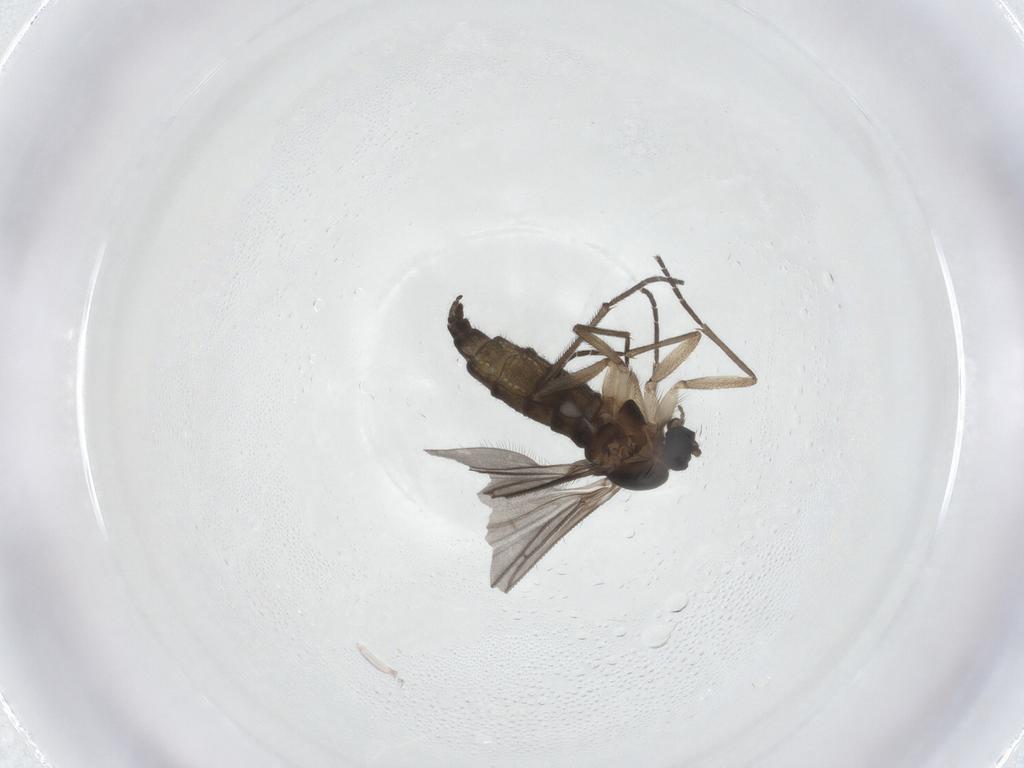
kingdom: Animalia
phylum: Arthropoda
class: Insecta
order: Diptera
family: Sciaridae
